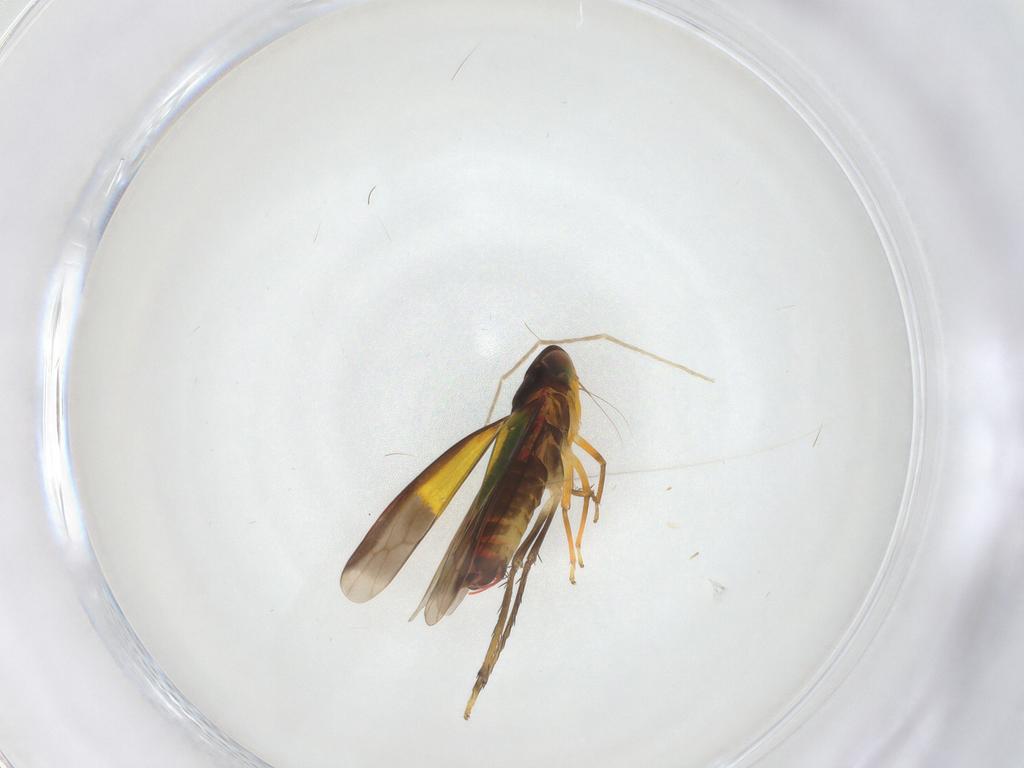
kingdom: Animalia
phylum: Arthropoda
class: Insecta
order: Hemiptera
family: Cicadellidae
